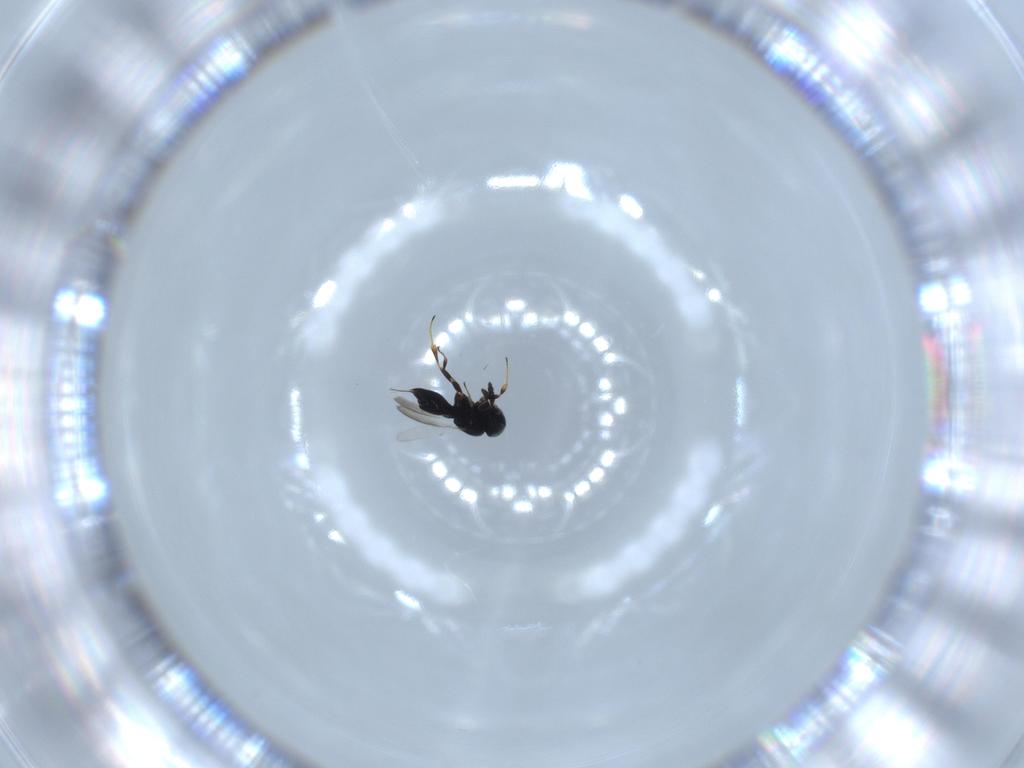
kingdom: Animalia
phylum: Arthropoda
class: Insecta
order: Hymenoptera
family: Scelionidae
